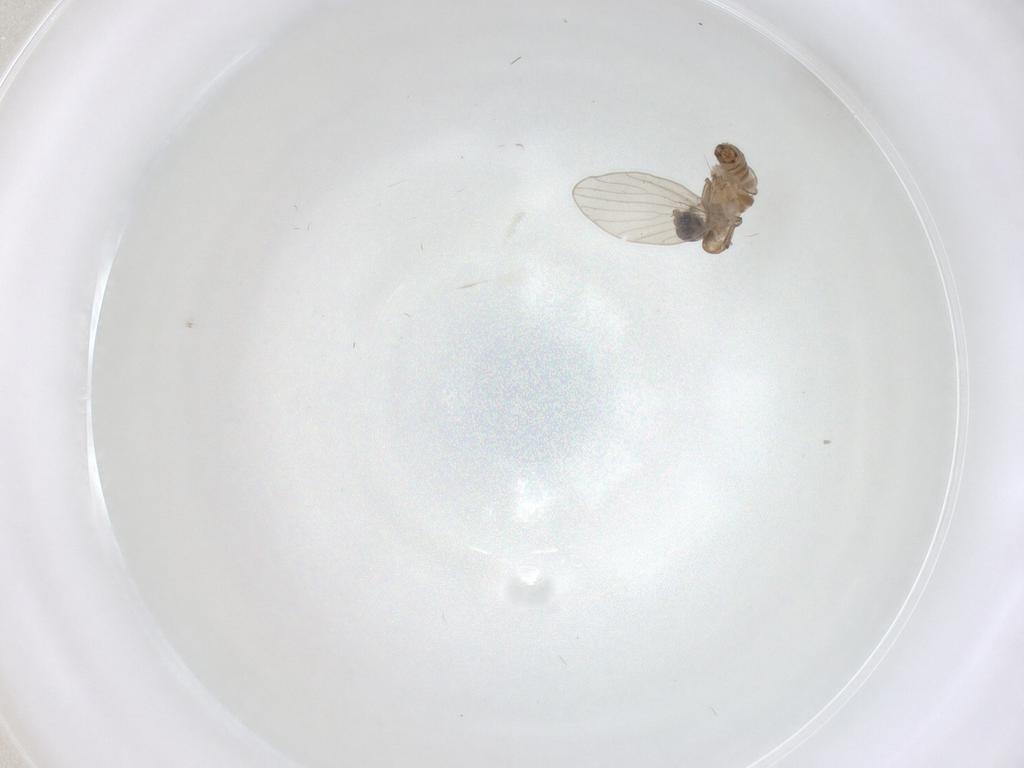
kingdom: Animalia
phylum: Arthropoda
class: Insecta
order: Diptera
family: Psychodidae
